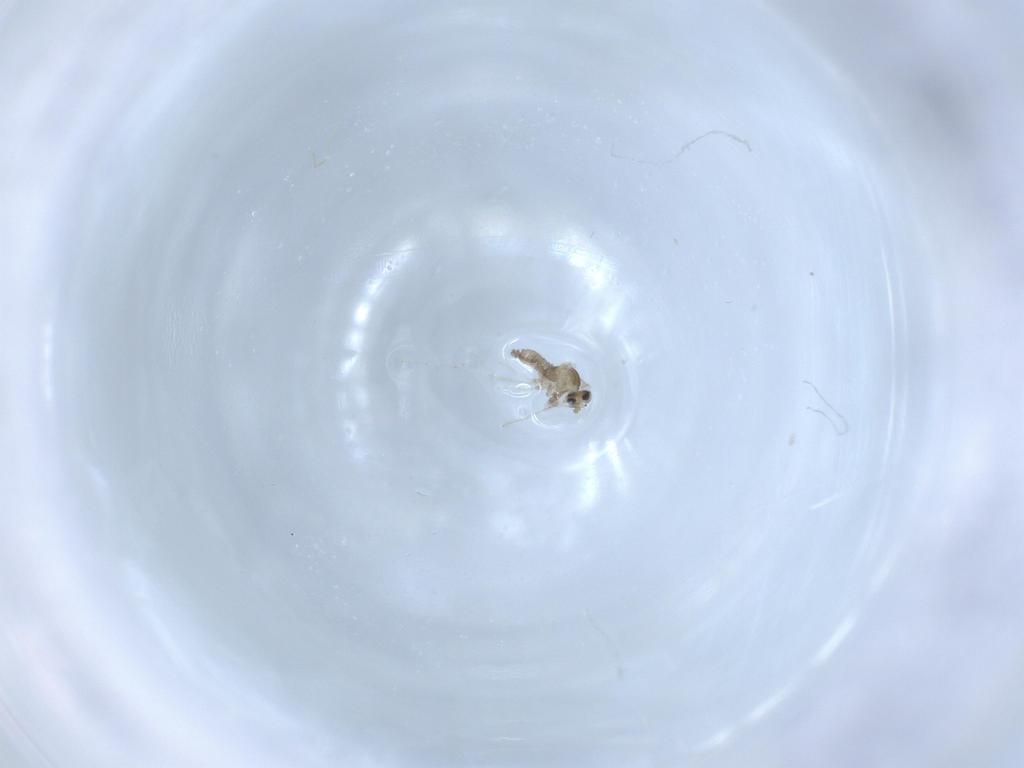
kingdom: Animalia
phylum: Arthropoda
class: Insecta
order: Diptera
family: Cecidomyiidae
